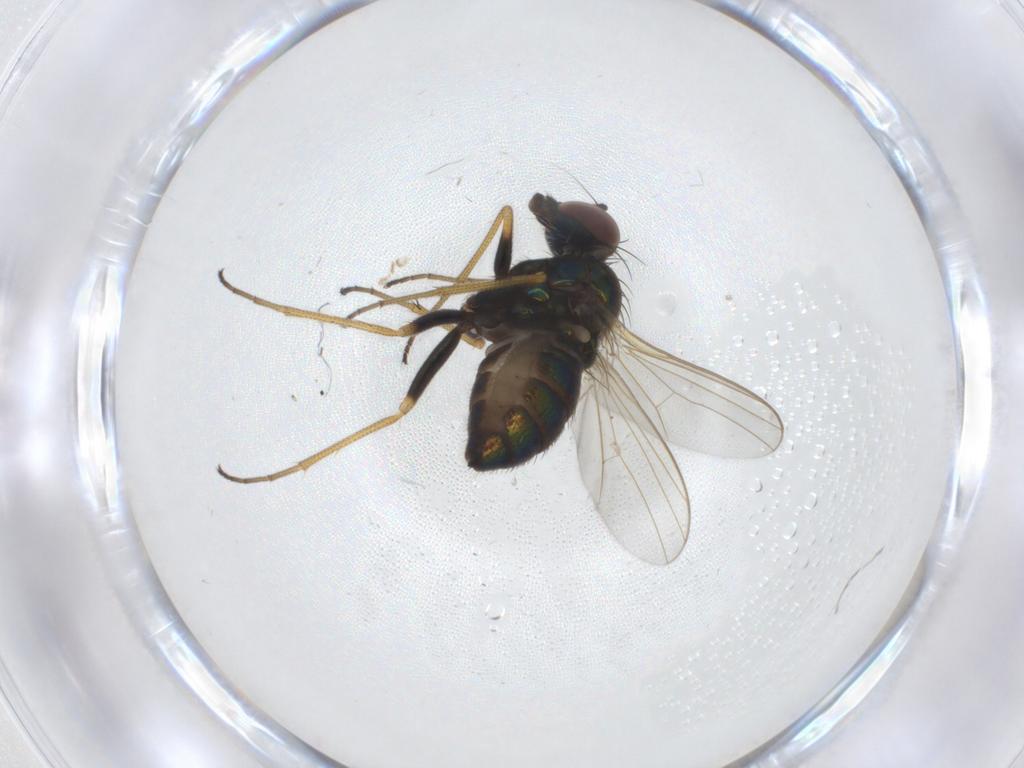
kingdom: Animalia
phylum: Arthropoda
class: Insecta
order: Diptera
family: Dolichopodidae
